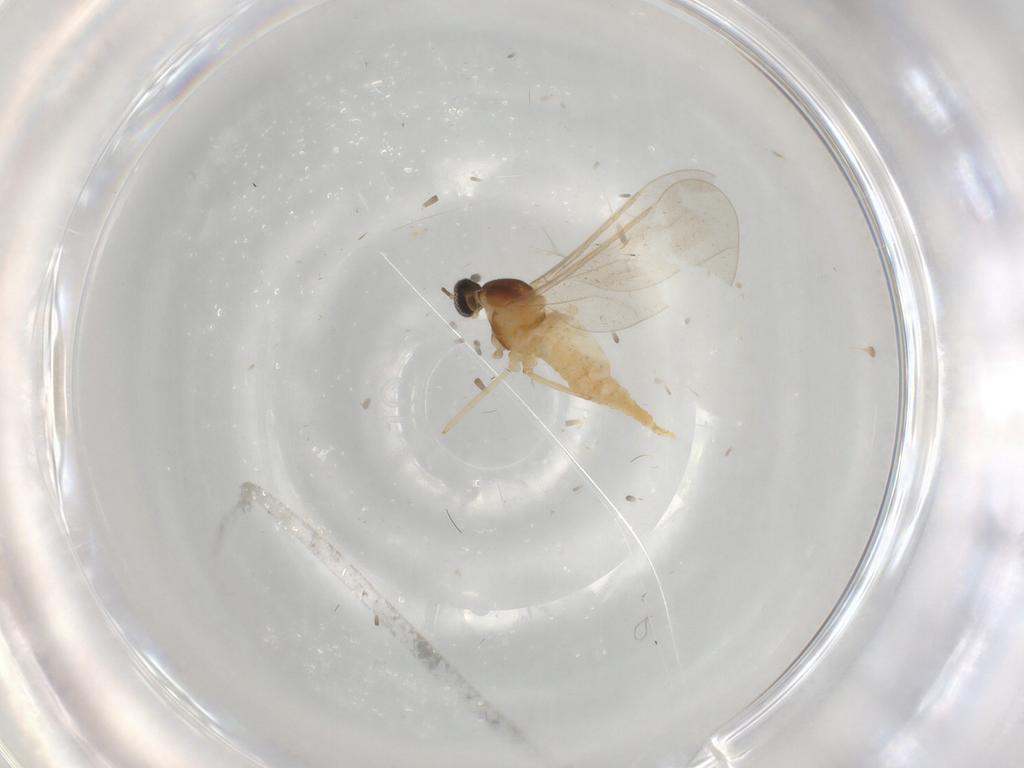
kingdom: Animalia
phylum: Arthropoda
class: Insecta
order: Diptera
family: Cecidomyiidae
